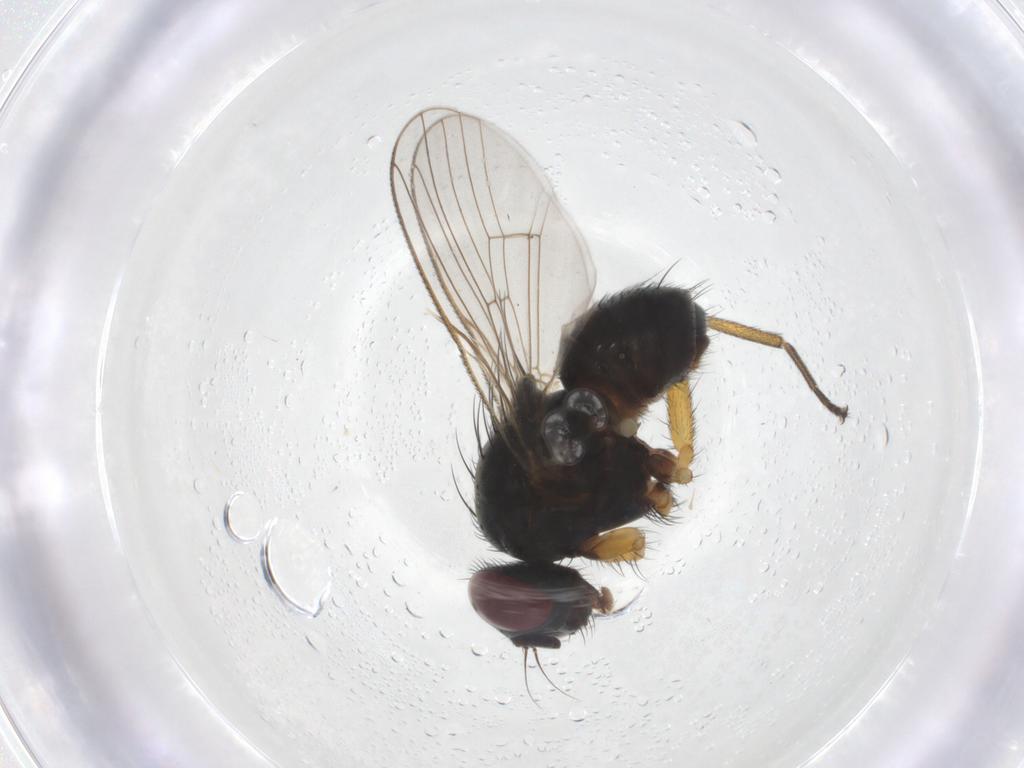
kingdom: Animalia
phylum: Arthropoda
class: Insecta
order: Diptera
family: Muscidae
